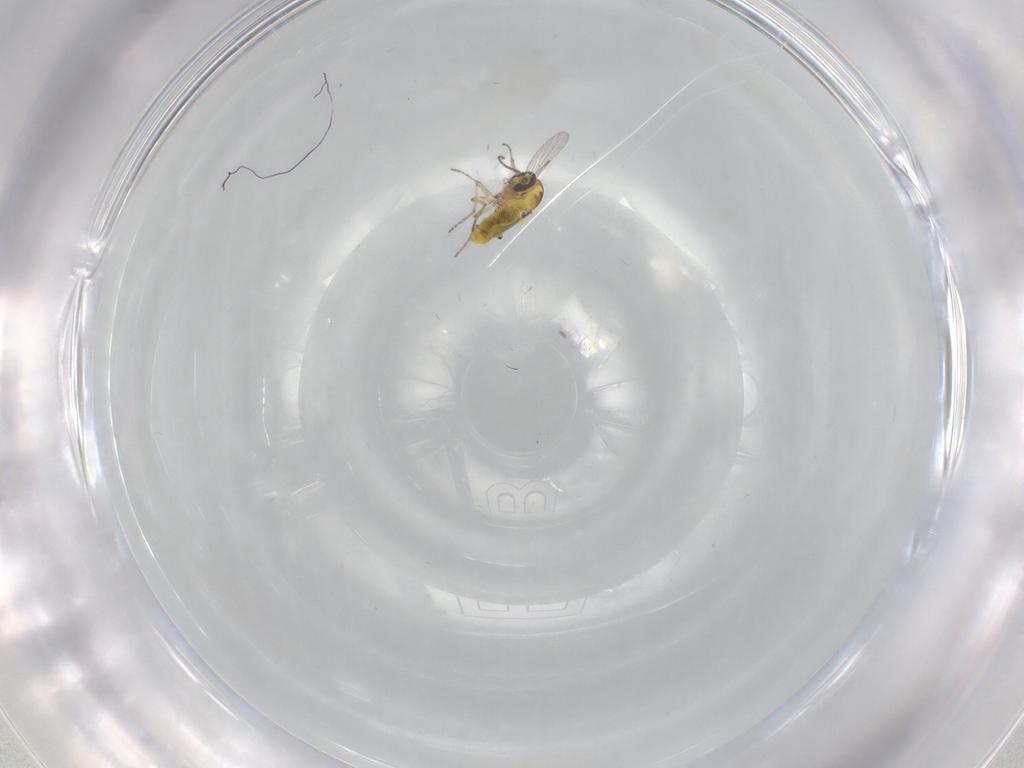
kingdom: Animalia
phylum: Arthropoda
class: Insecta
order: Diptera
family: Ceratopogonidae
